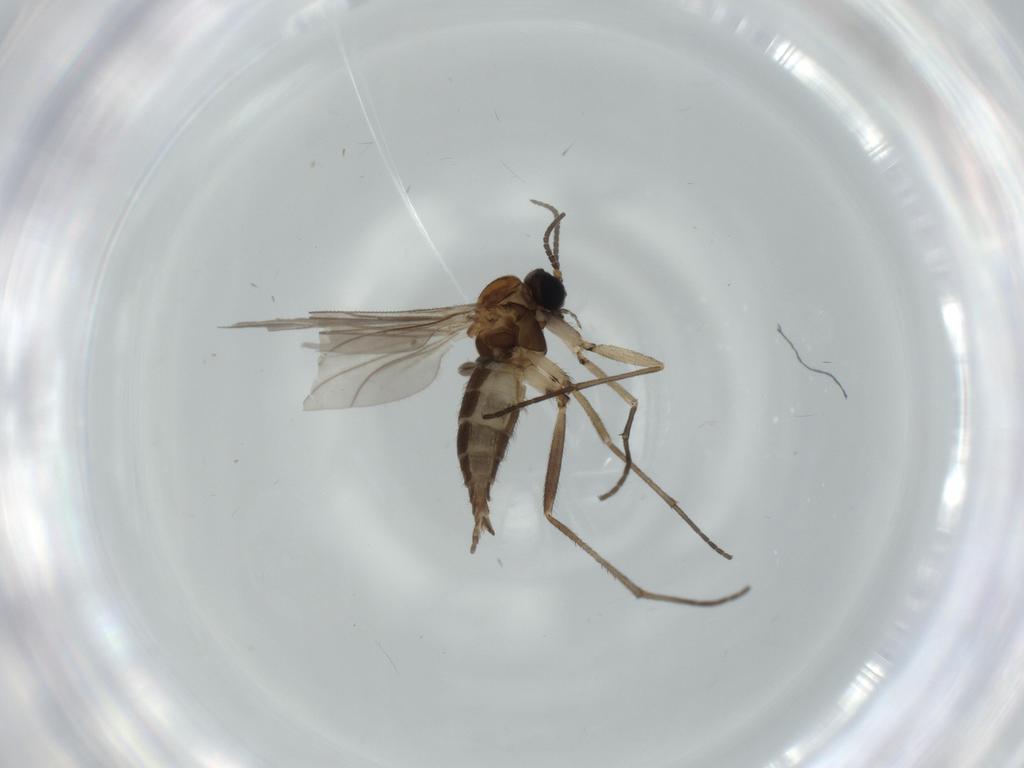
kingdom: Animalia
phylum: Arthropoda
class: Insecta
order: Diptera
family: Sciaridae
